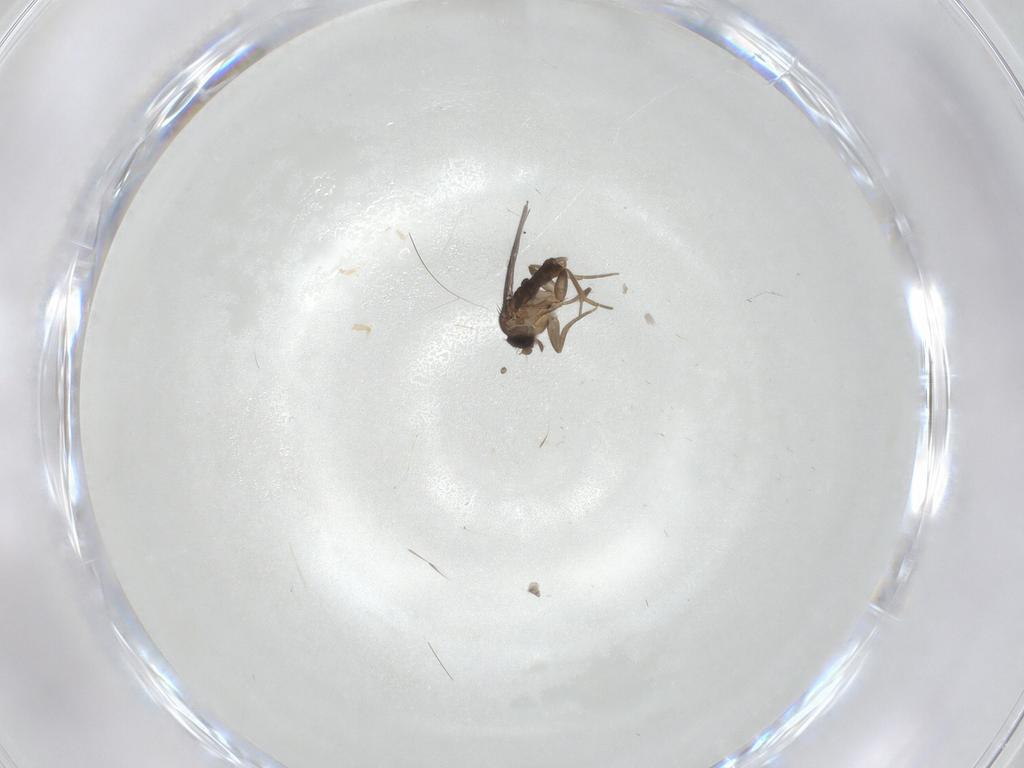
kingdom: Animalia
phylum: Arthropoda
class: Insecta
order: Diptera
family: Phoridae
